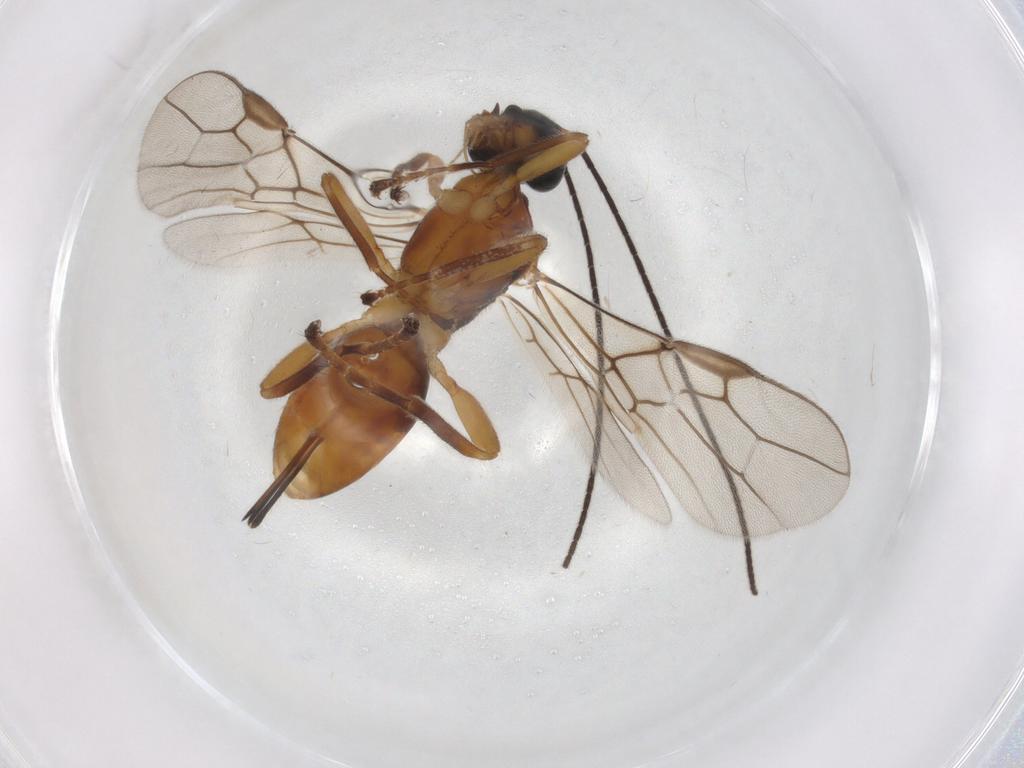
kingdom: Animalia
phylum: Arthropoda
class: Insecta
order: Hymenoptera
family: Braconidae
